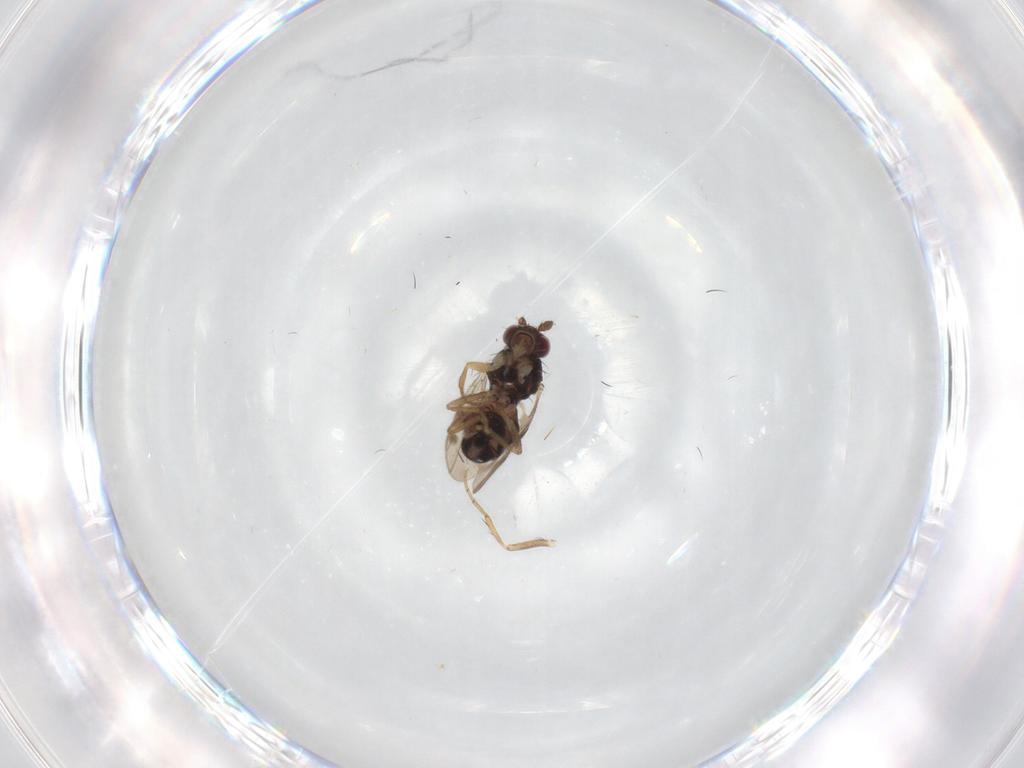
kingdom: Animalia
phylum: Arthropoda
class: Insecta
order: Diptera
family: Sphaeroceridae
